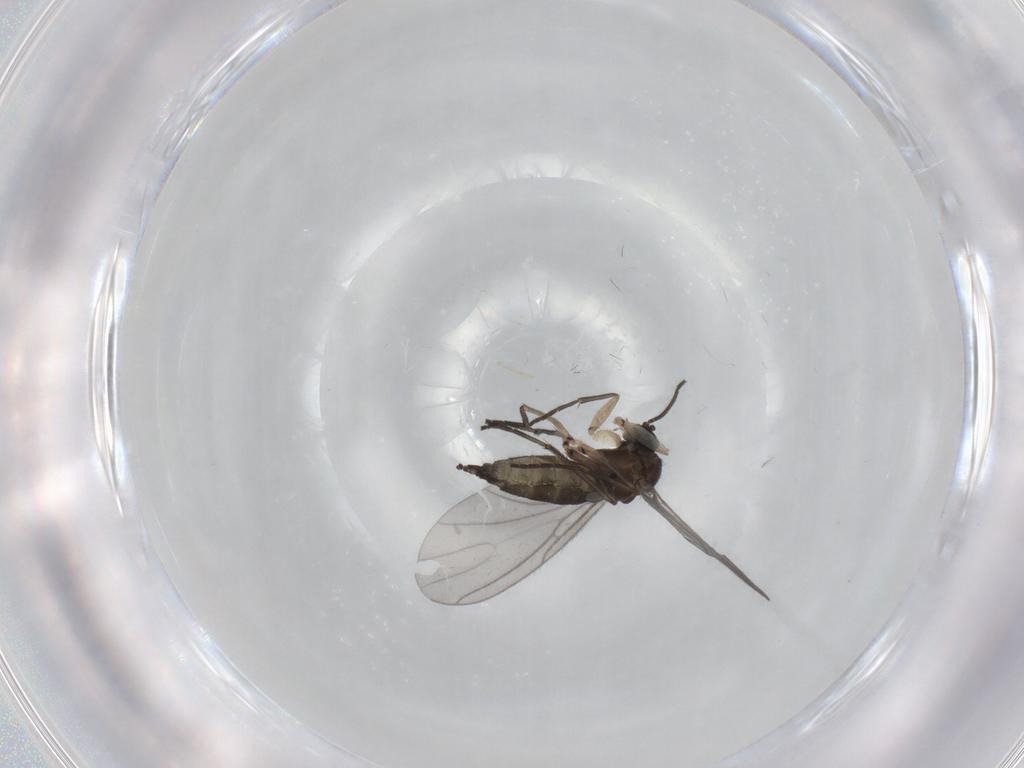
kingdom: Animalia
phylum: Arthropoda
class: Insecta
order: Diptera
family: Sciaridae
